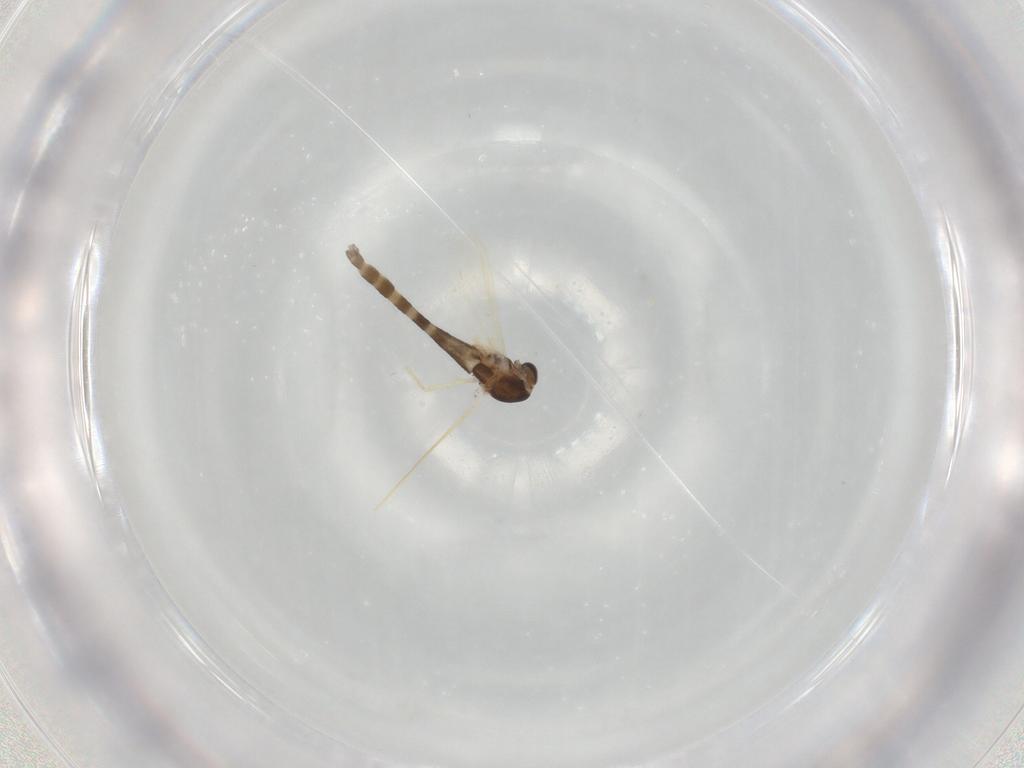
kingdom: Animalia
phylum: Arthropoda
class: Insecta
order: Diptera
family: Chironomidae
